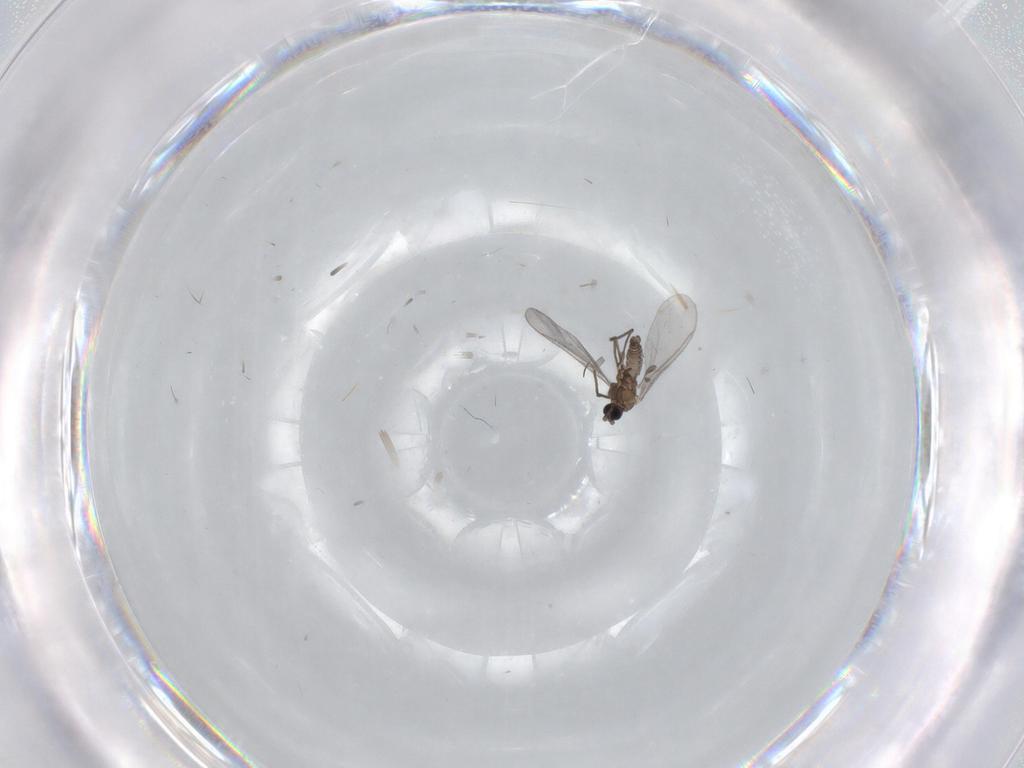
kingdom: Animalia
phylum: Arthropoda
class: Insecta
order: Diptera
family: Sciaridae
